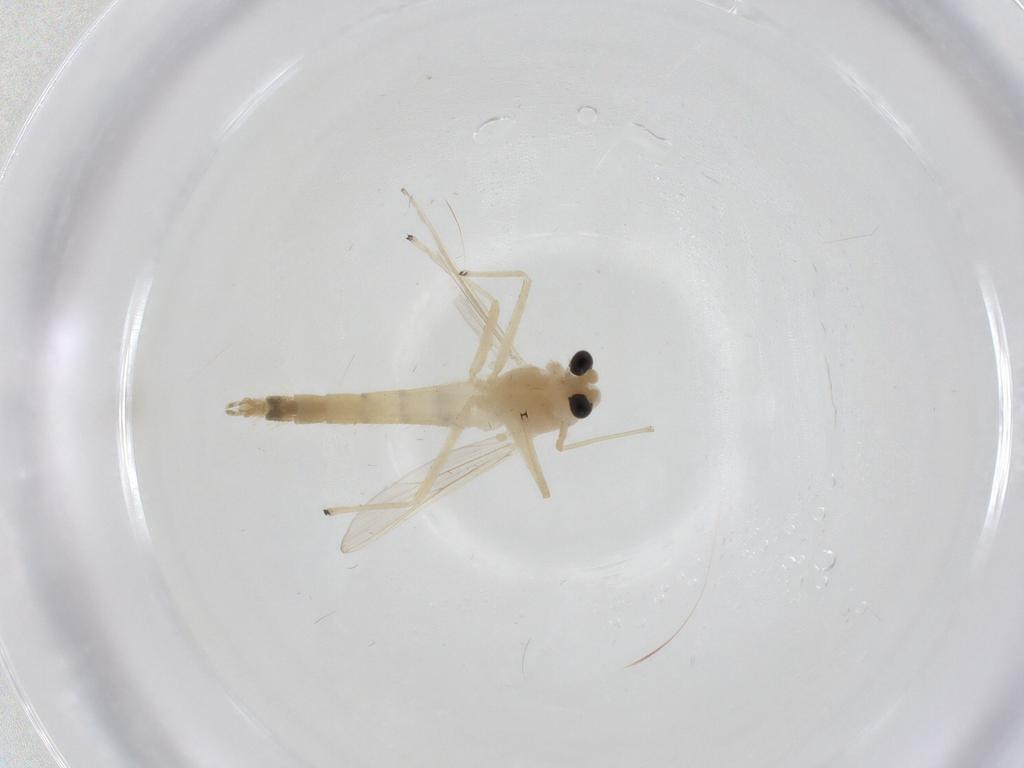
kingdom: Animalia
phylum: Arthropoda
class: Insecta
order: Diptera
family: Chironomidae
